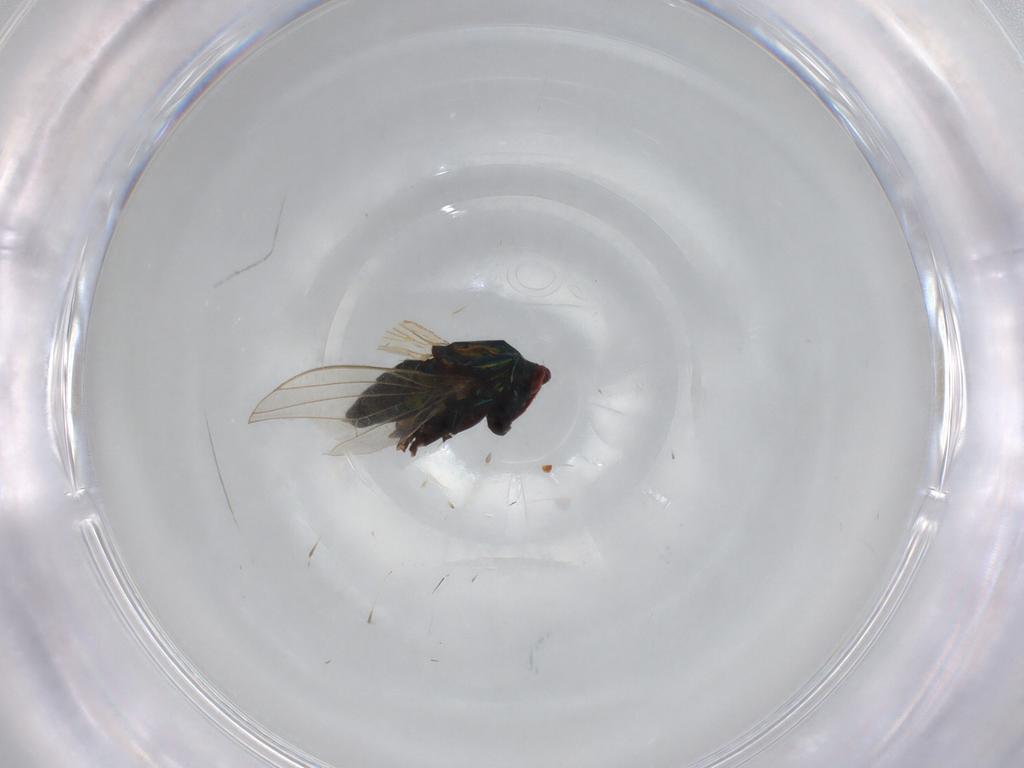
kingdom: Animalia
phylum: Arthropoda
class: Insecta
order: Diptera
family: Dolichopodidae
